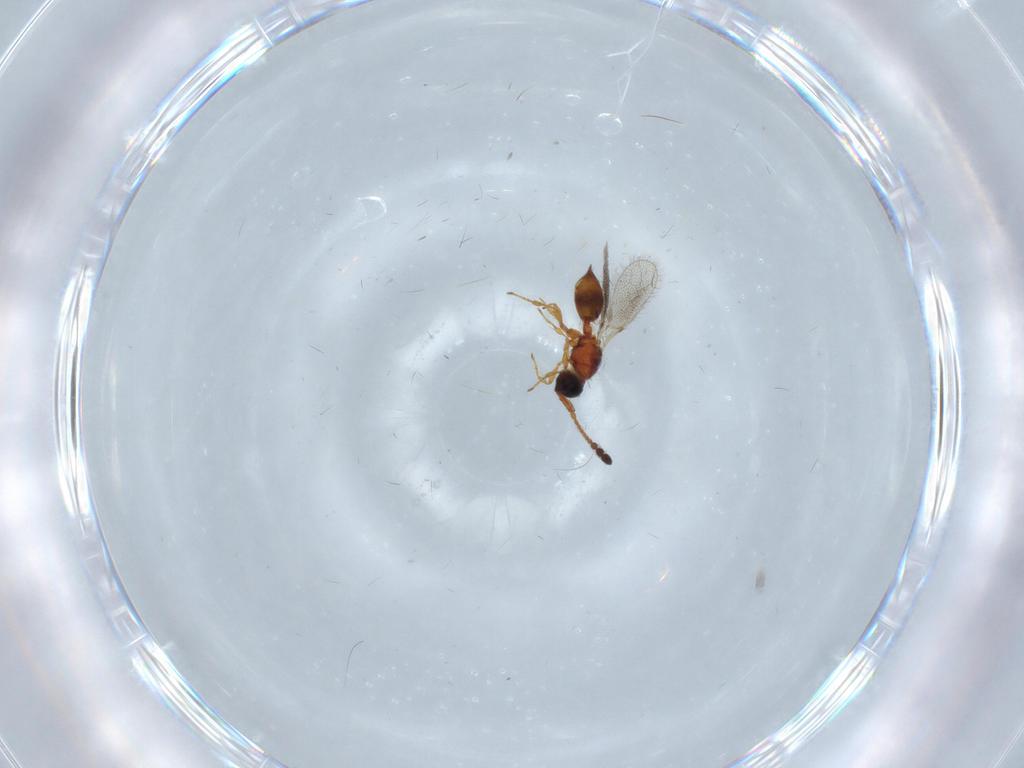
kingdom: Animalia
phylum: Arthropoda
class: Insecta
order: Hymenoptera
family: Diapriidae
